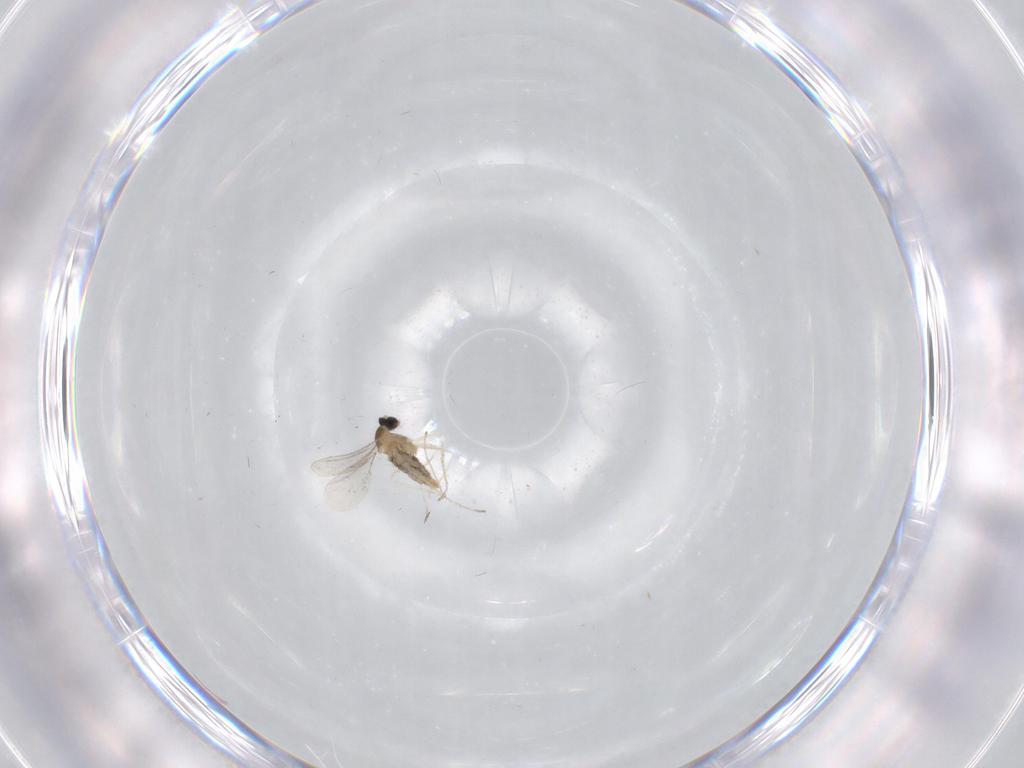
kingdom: Animalia
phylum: Arthropoda
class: Insecta
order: Diptera
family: Cecidomyiidae
